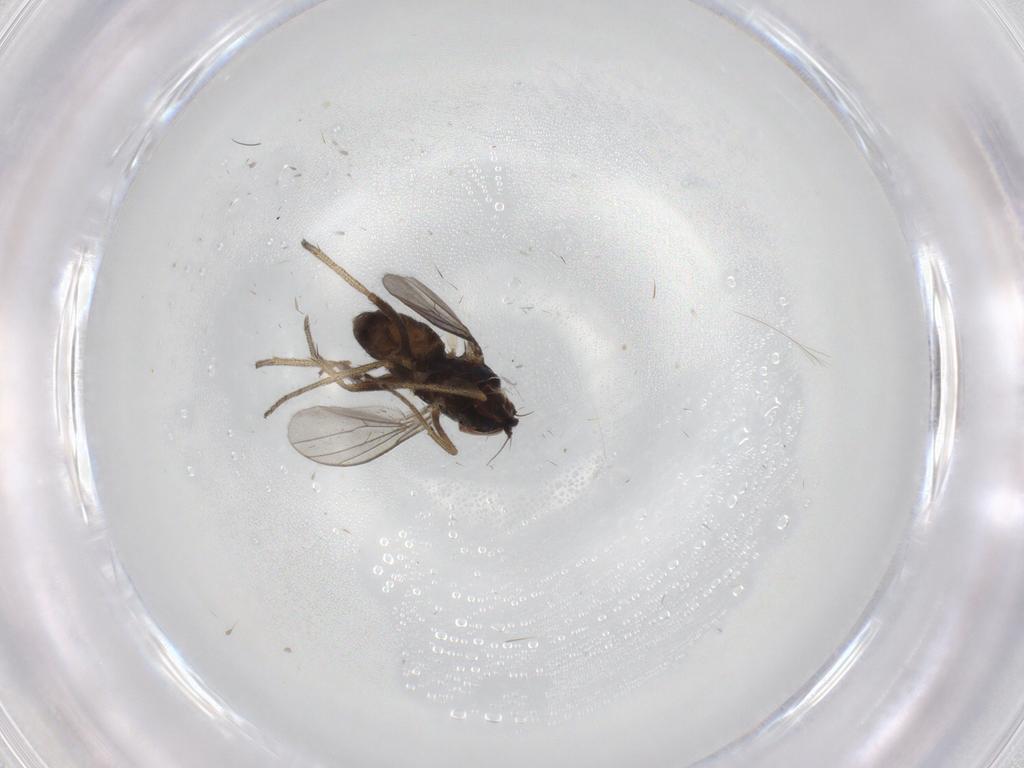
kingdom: Animalia
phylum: Arthropoda
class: Insecta
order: Diptera
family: Dolichopodidae
